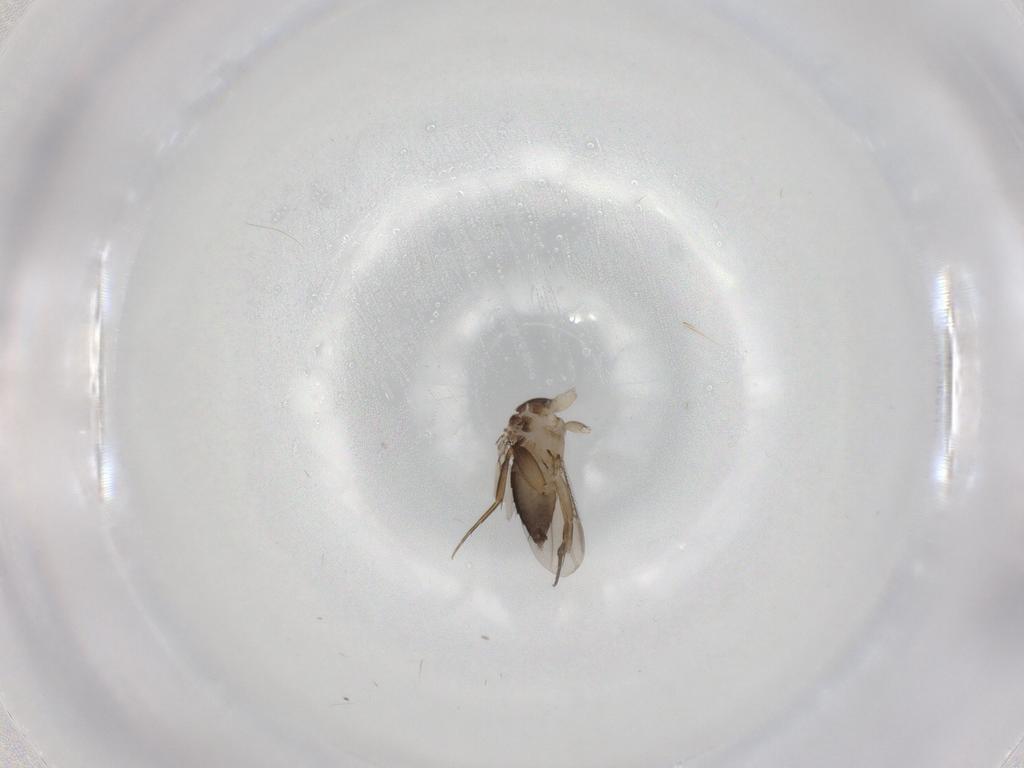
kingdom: Animalia
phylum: Arthropoda
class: Insecta
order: Diptera
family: Phoridae
